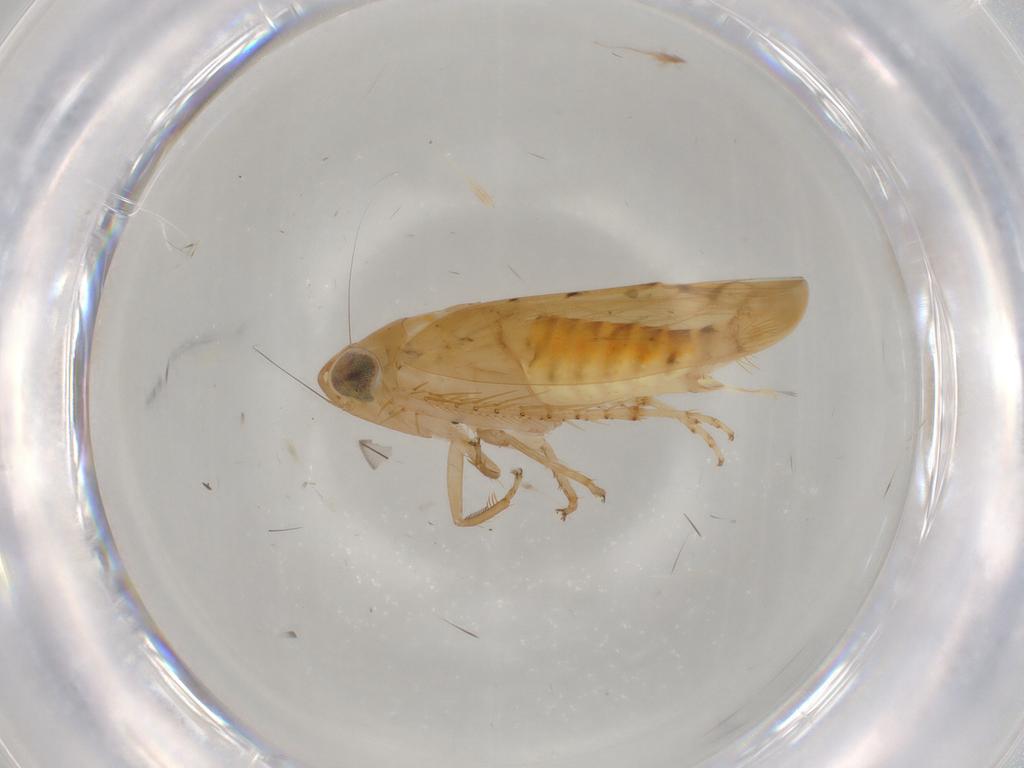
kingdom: Animalia
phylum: Arthropoda
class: Insecta
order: Hemiptera
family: Cicadellidae
